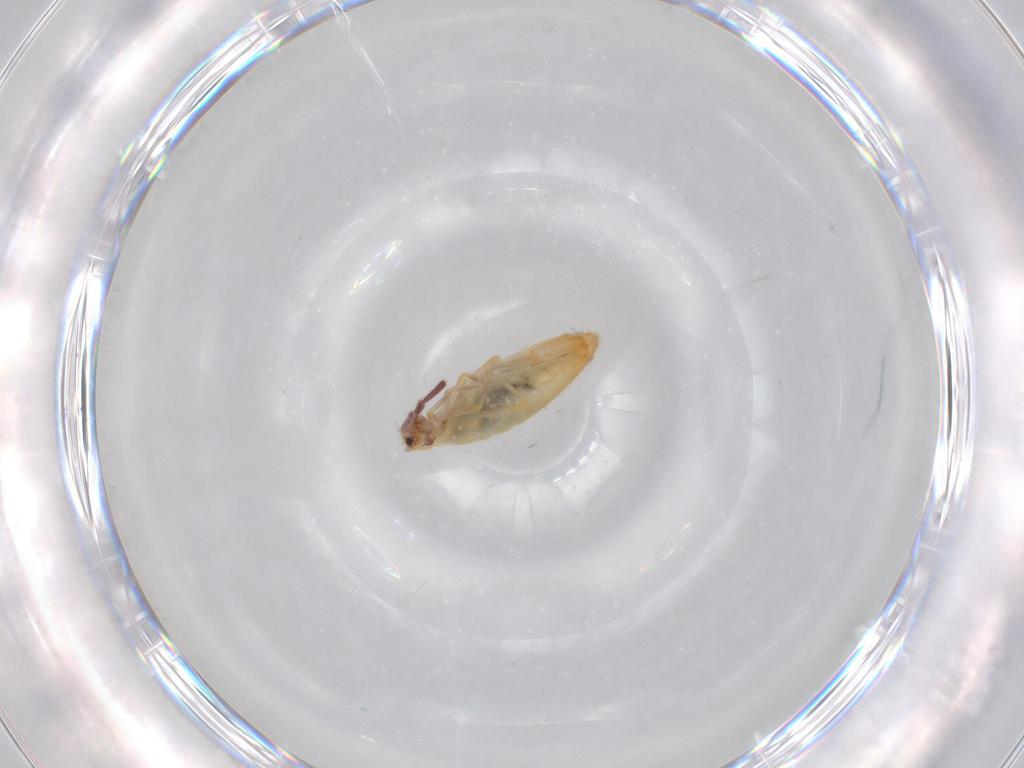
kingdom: Animalia
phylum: Arthropoda
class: Collembola
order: Entomobryomorpha
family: Entomobryidae
